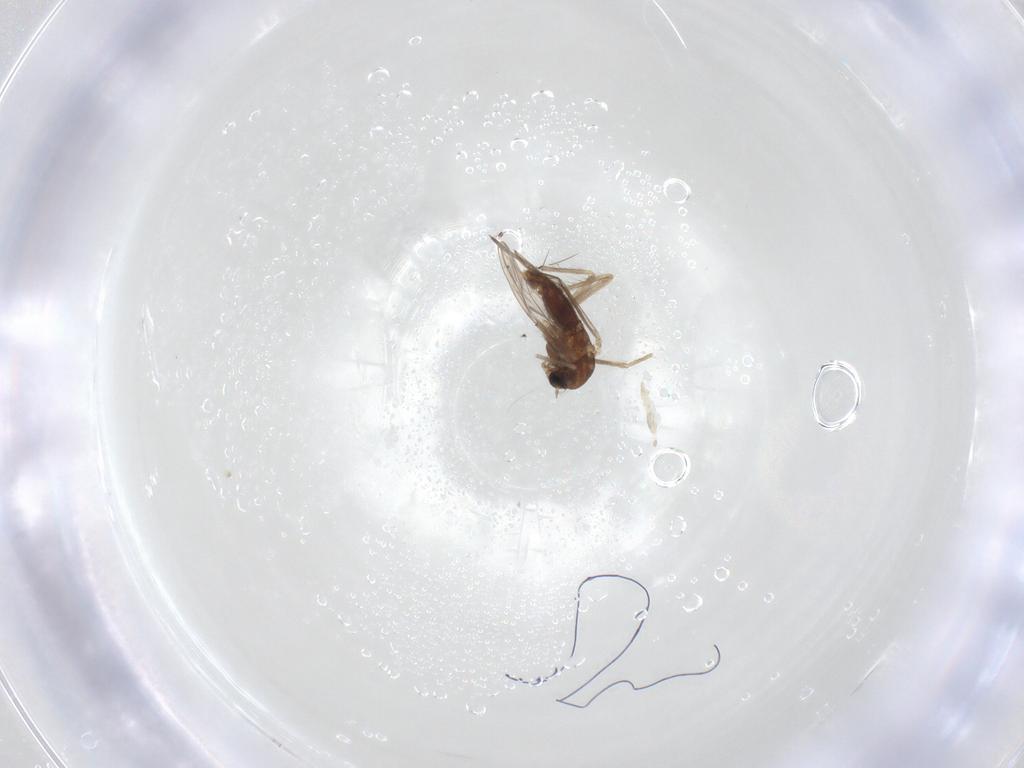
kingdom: Animalia
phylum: Arthropoda
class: Insecta
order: Diptera
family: Chironomidae
